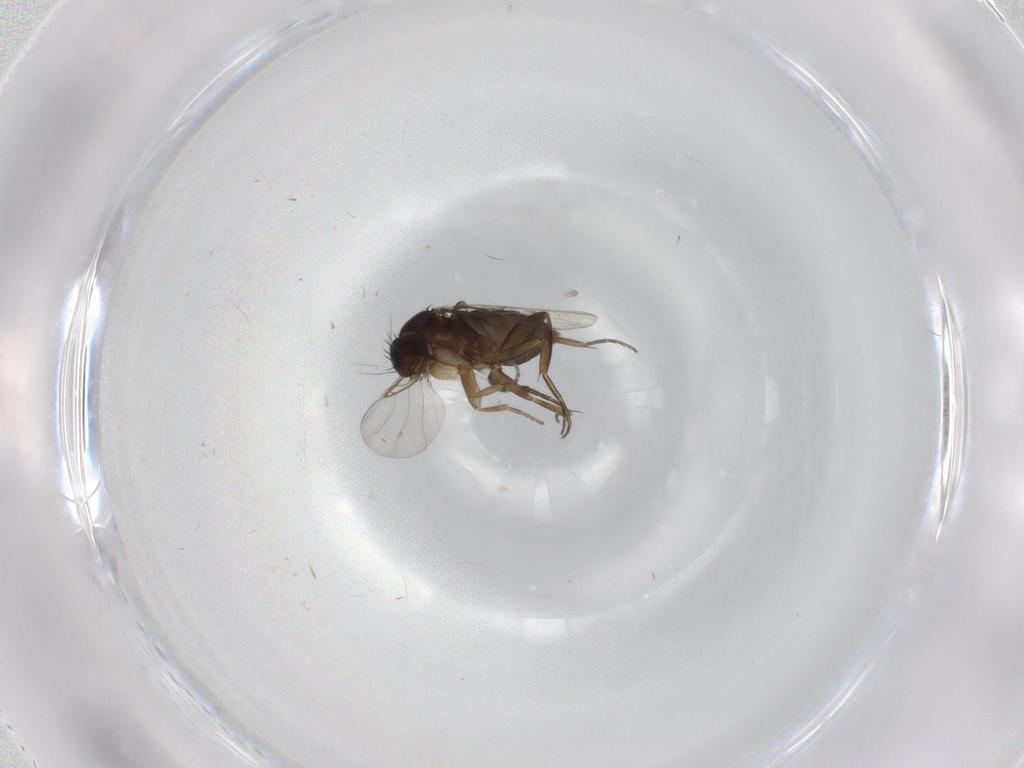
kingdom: Animalia
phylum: Arthropoda
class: Insecta
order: Diptera
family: Phoridae
